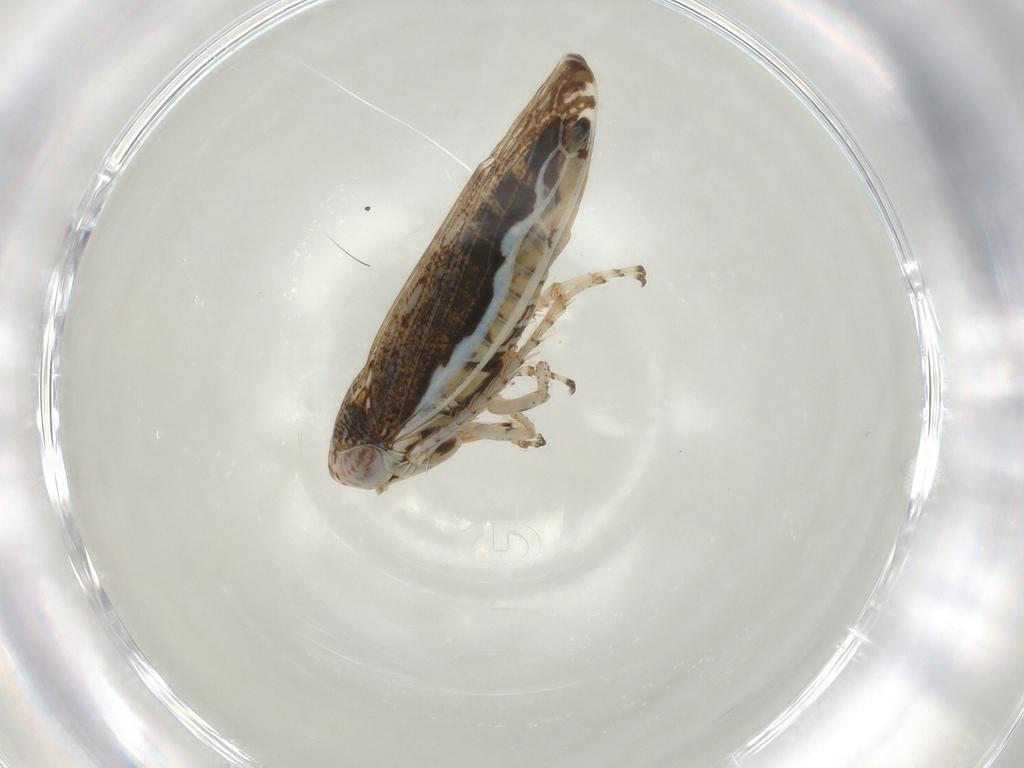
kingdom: Animalia
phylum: Arthropoda
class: Insecta
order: Hemiptera
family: Cicadellidae
